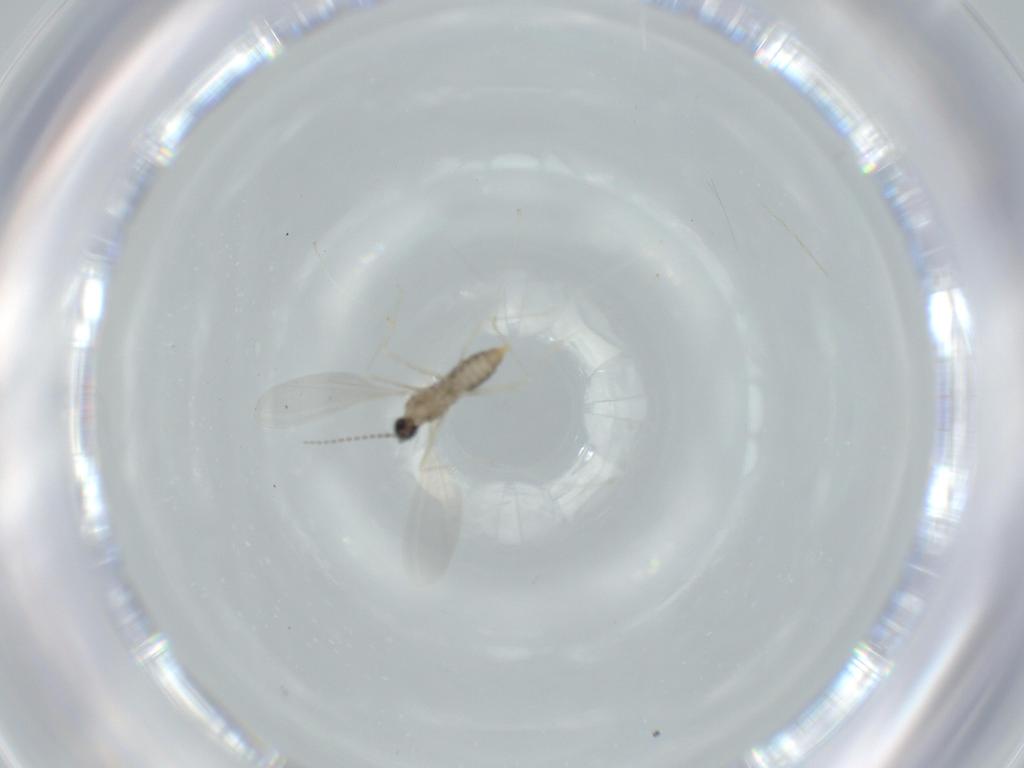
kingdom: Animalia
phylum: Arthropoda
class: Insecta
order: Diptera
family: Cecidomyiidae
